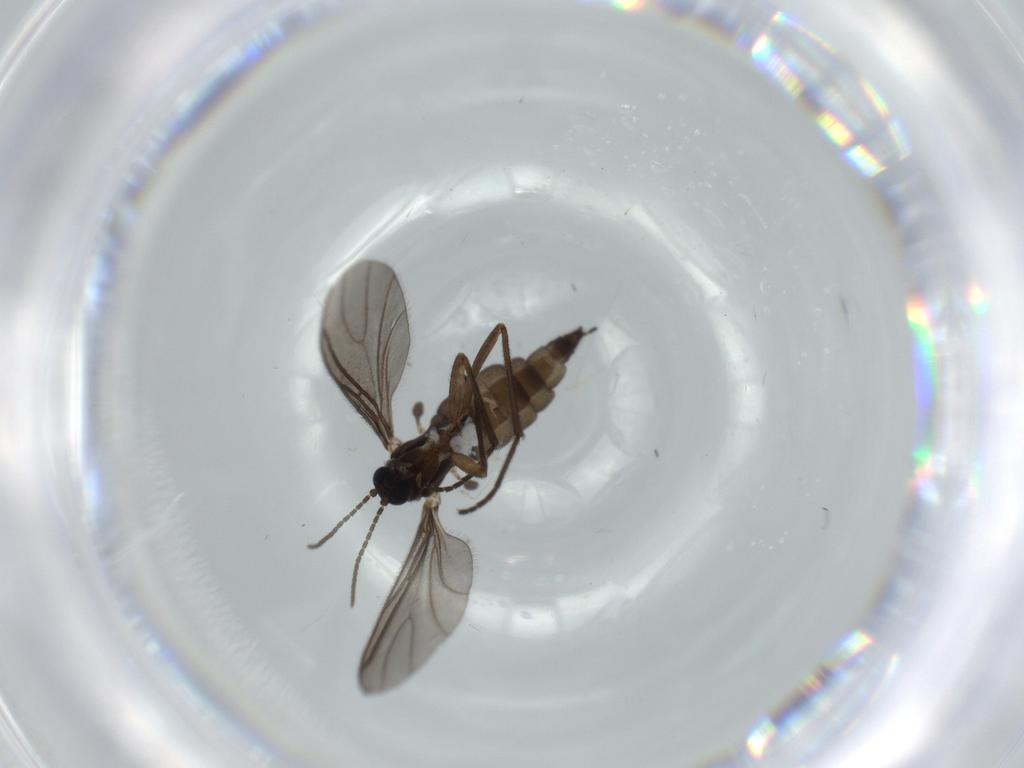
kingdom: Animalia
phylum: Arthropoda
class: Insecta
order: Diptera
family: Sciaridae
